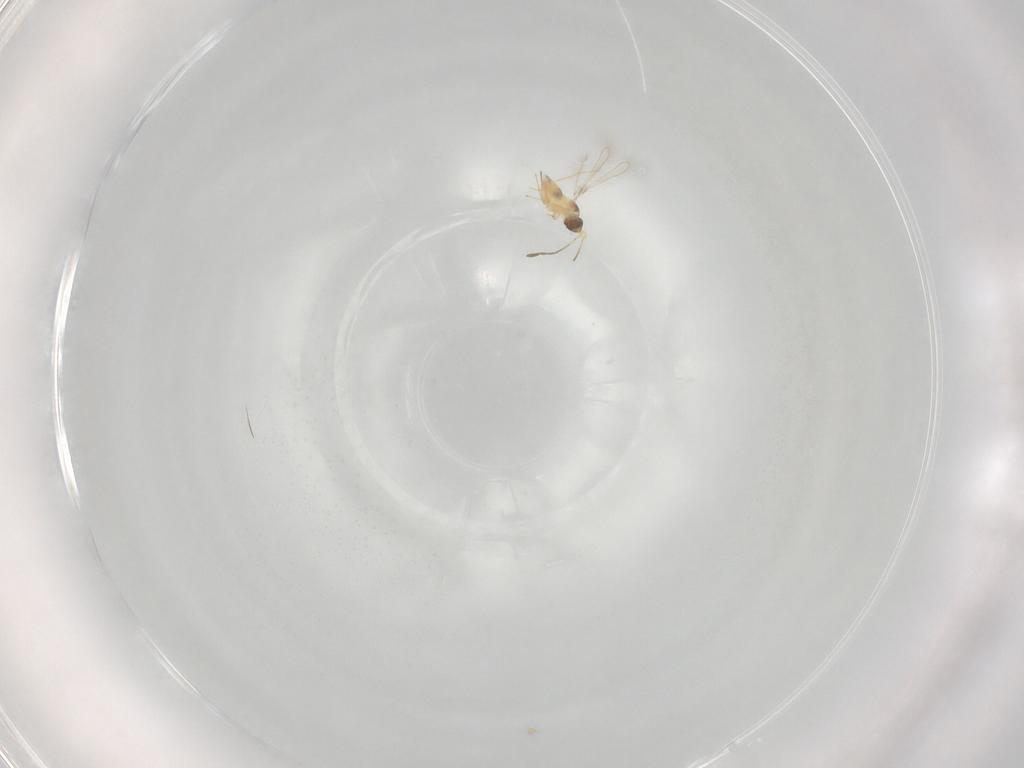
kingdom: Animalia
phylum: Arthropoda
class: Insecta
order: Hymenoptera
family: Mymaridae
